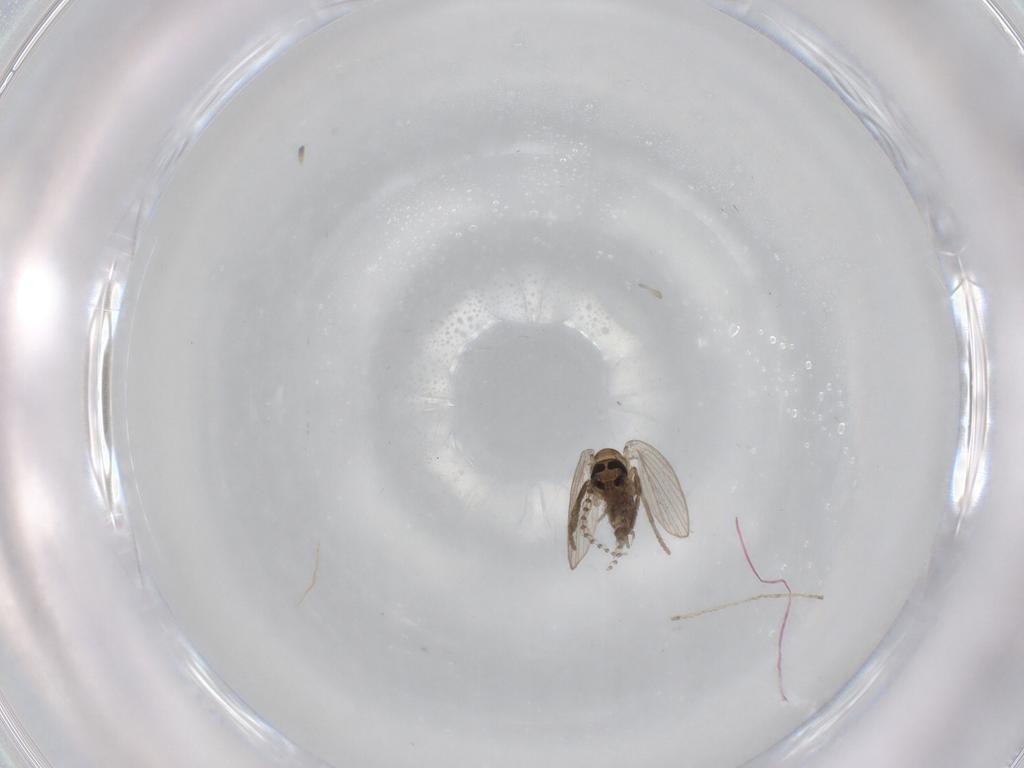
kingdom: Animalia
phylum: Arthropoda
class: Insecta
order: Diptera
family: Psychodidae
